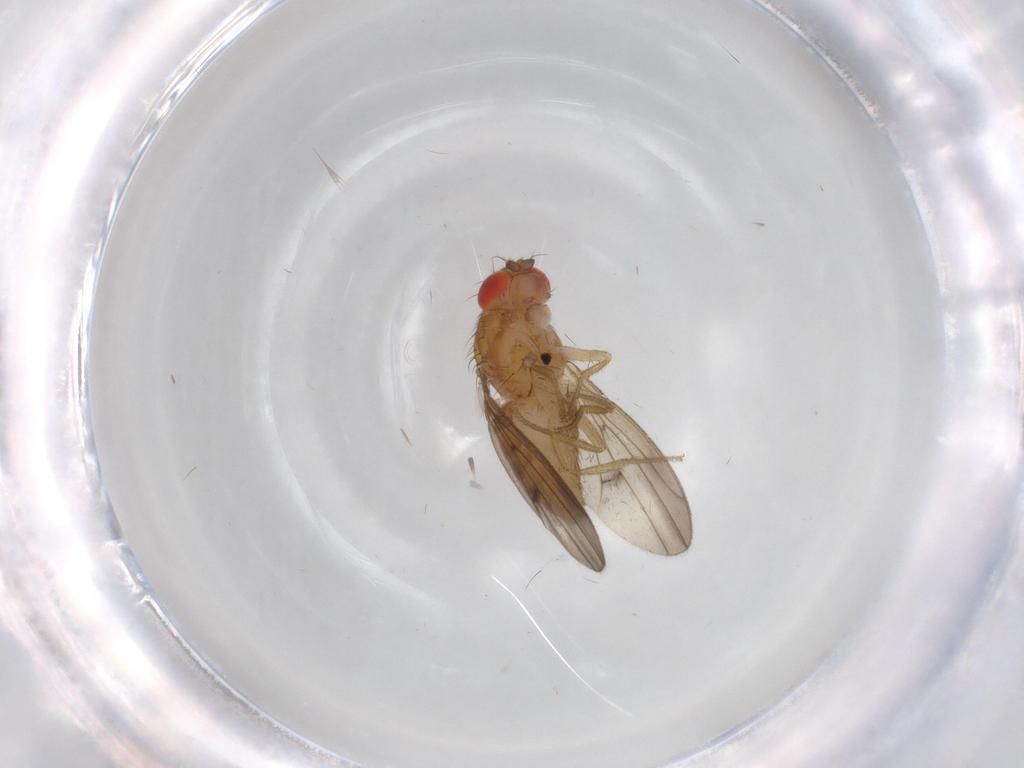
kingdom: Animalia
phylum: Arthropoda
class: Insecta
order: Diptera
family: Drosophilidae
